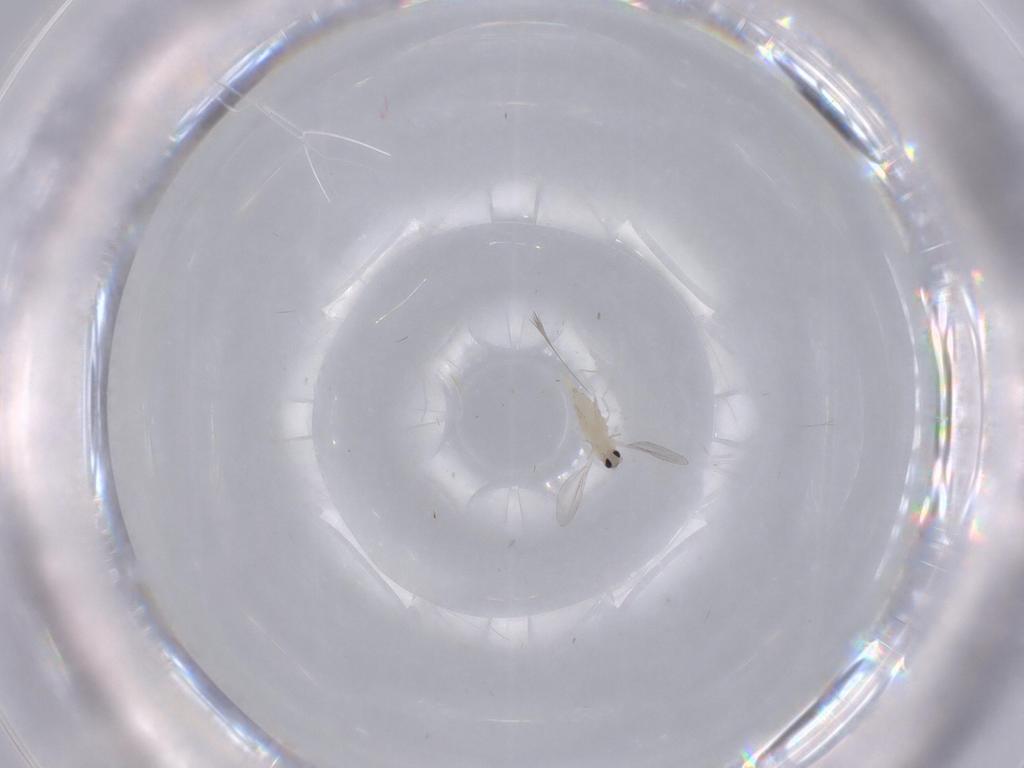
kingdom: Animalia
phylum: Arthropoda
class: Insecta
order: Diptera
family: Cecidomyiidae
